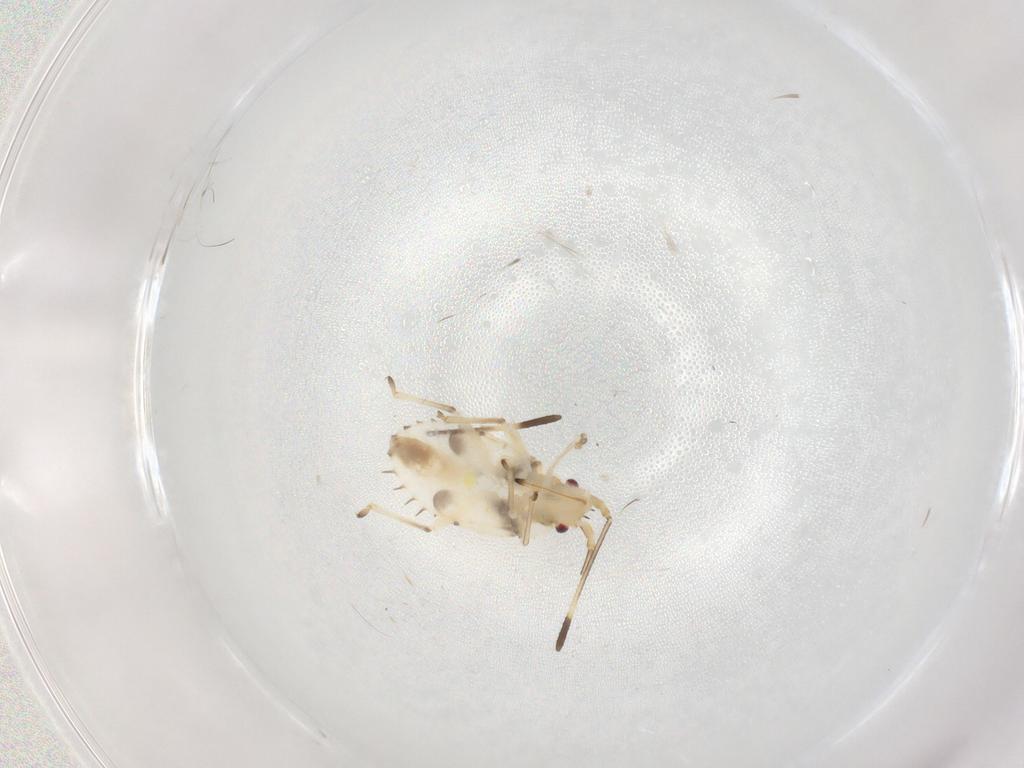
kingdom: Animalia
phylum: Arthropoda
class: Insecta
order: Hemiptera
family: Tingidae
